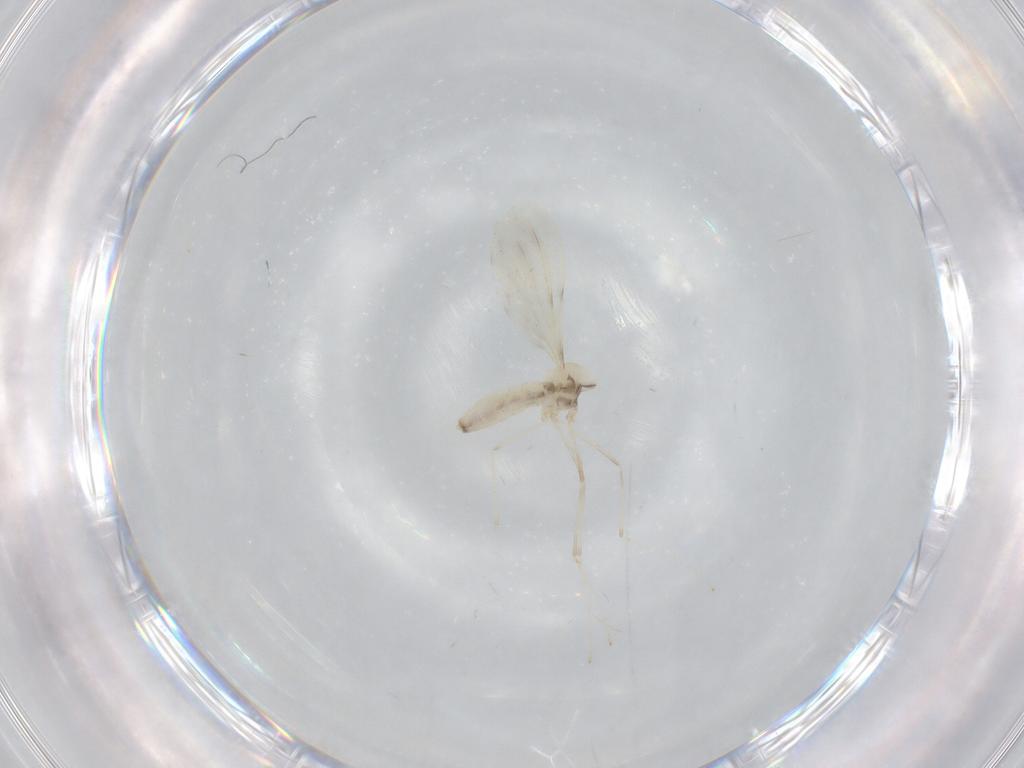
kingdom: Animalia
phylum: Arthropoda
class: Insecta
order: Diptera
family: Cecidomyiidae
